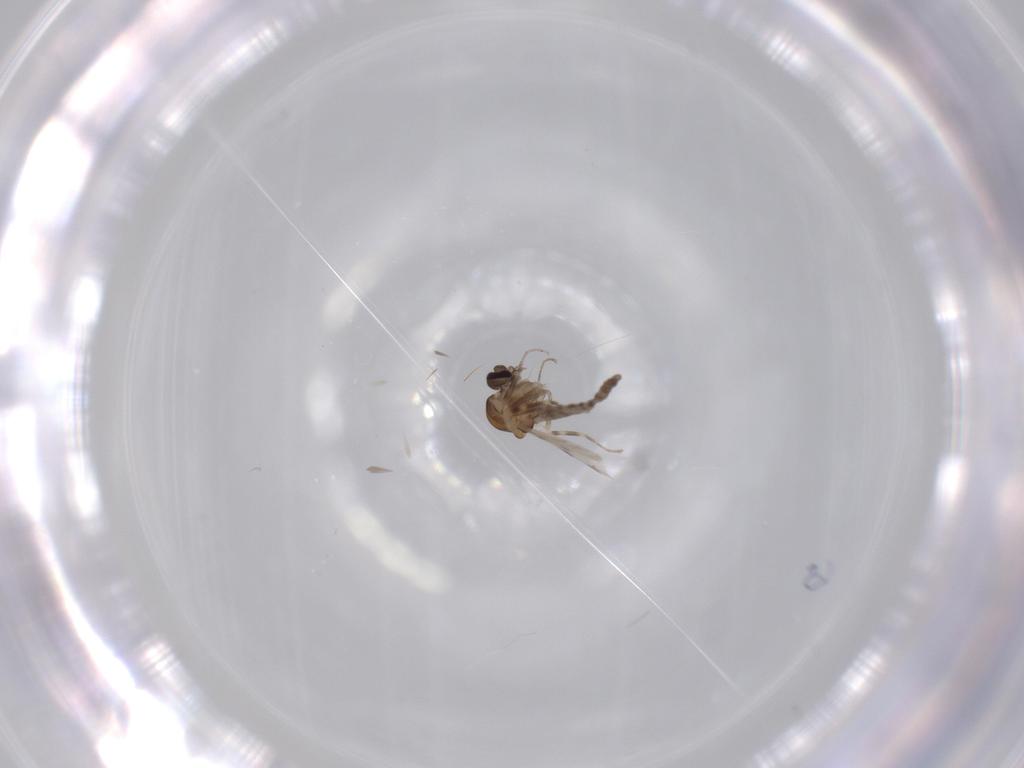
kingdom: Animalia
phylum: Arthropoda
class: Insecta
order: Diptera
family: Ceratopogonidae
